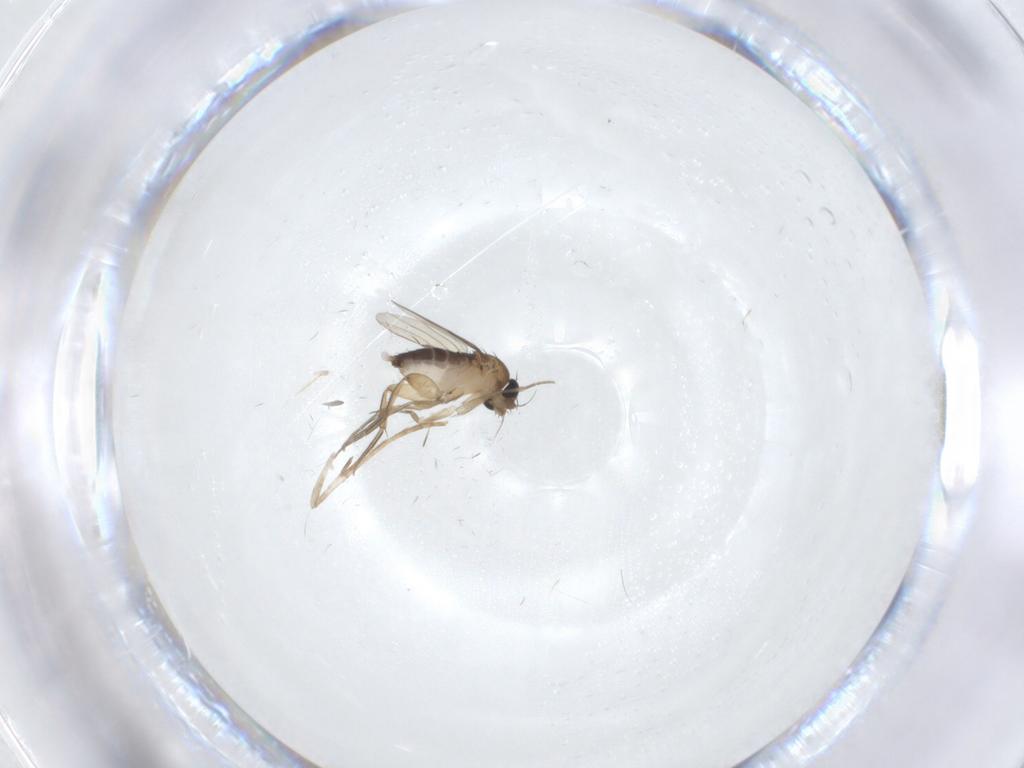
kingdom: Animalia
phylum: Arthropoda
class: Insecta
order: Diptera
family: Phoridae
